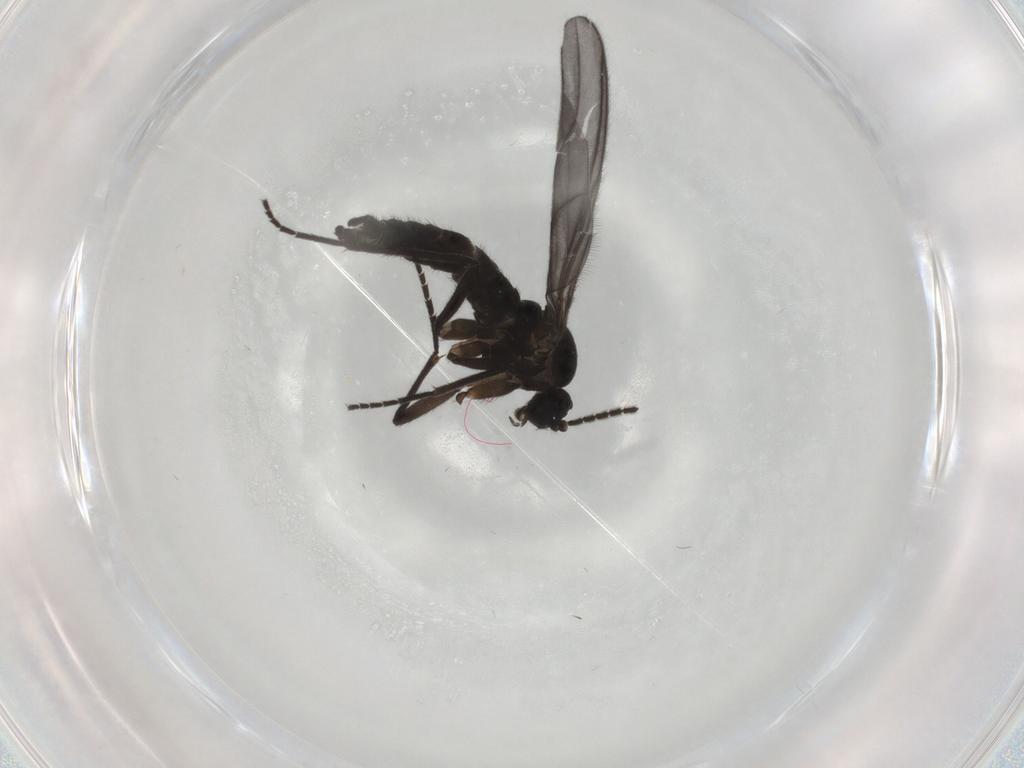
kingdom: Animalia
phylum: Arthropoda
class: Insecta
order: Diptera
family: Sciaridae
